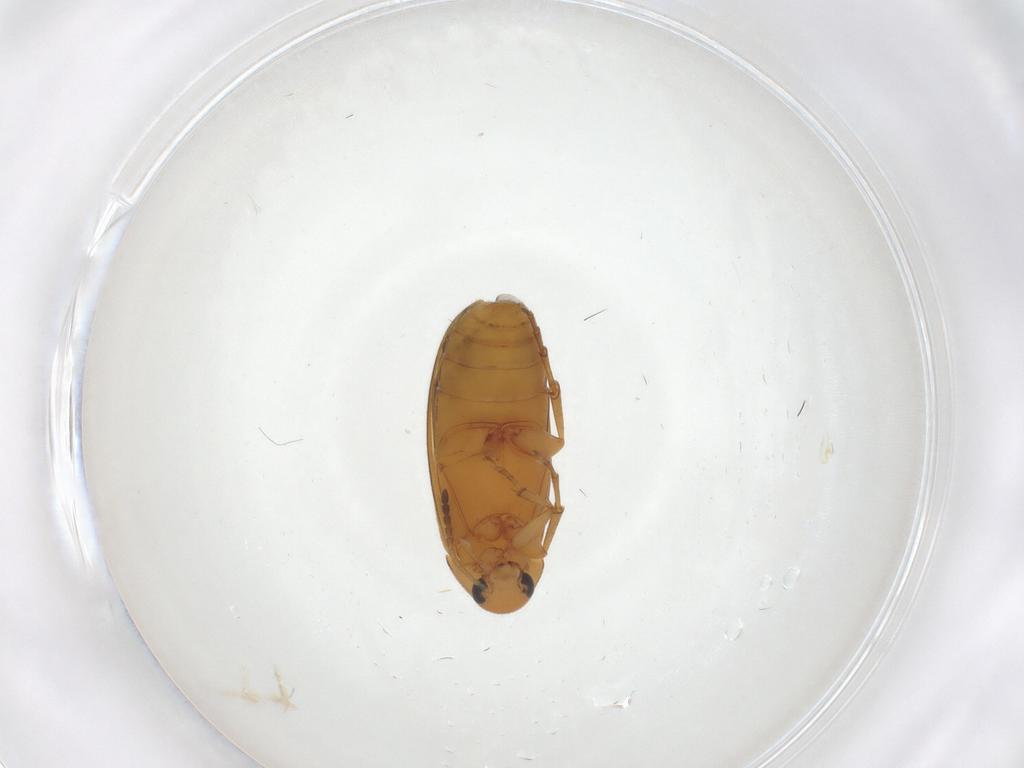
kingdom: Animalia
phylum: Arthropoda
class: Insecta
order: Coleoptera
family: Scraptiidae
